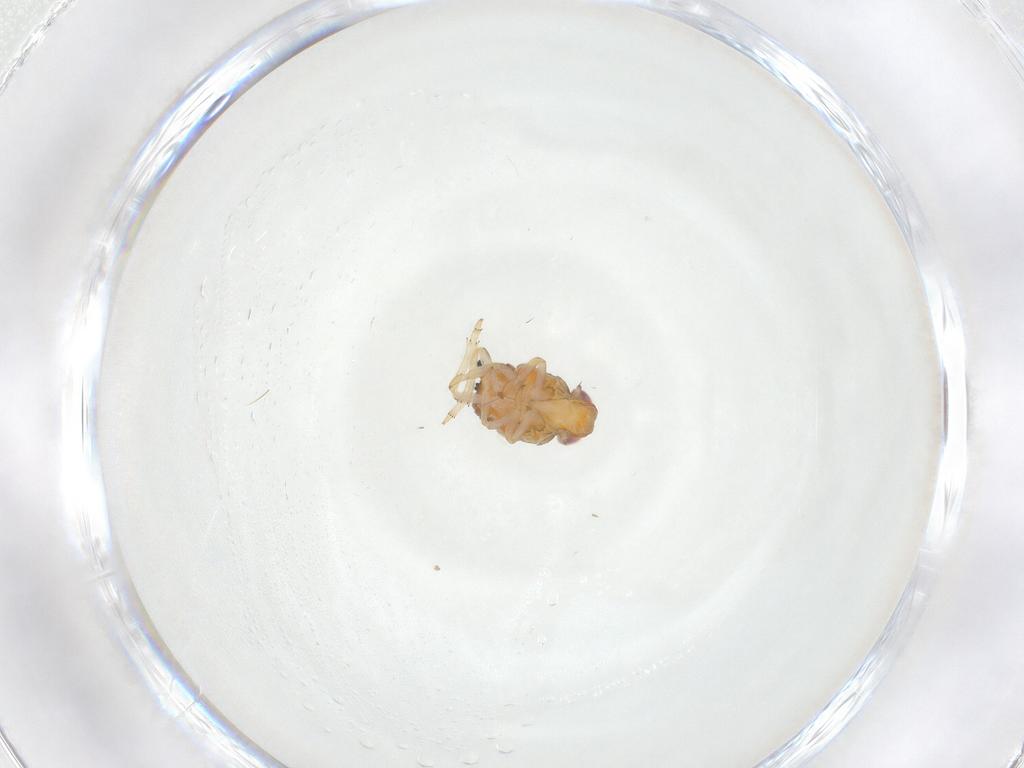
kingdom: Animalia
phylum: Arthropoda
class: Insecta
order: Hemiptera
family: Issidae
